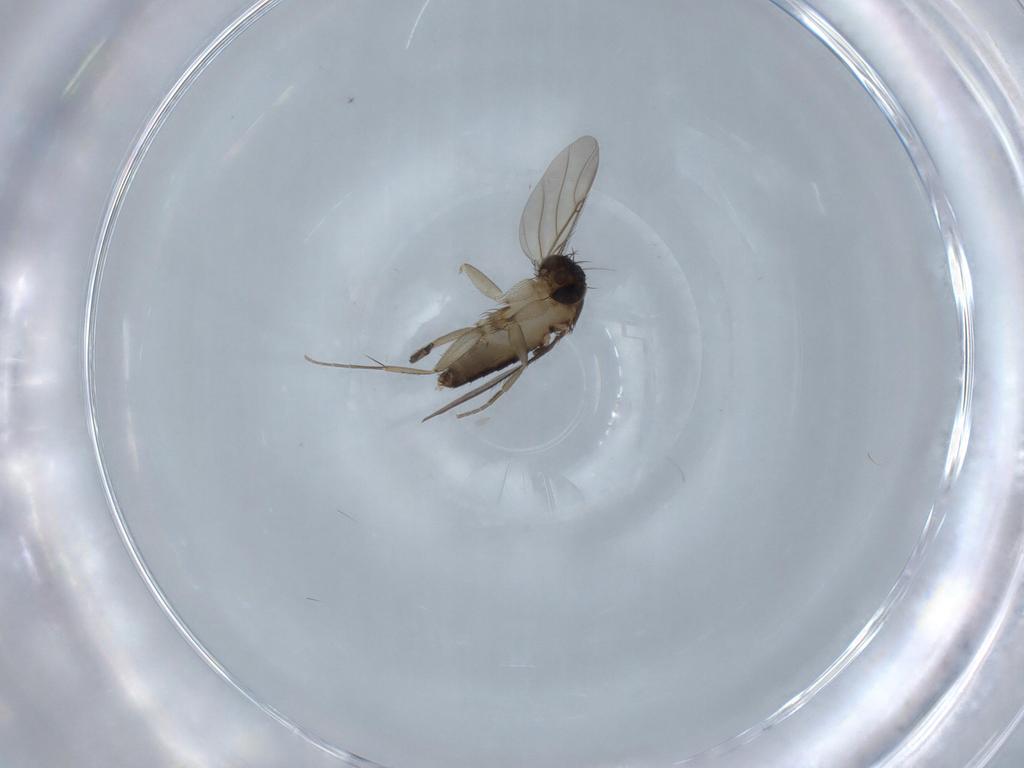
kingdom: Animalia
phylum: Arthropoda
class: Insecta
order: Diptera
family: Phoridae
